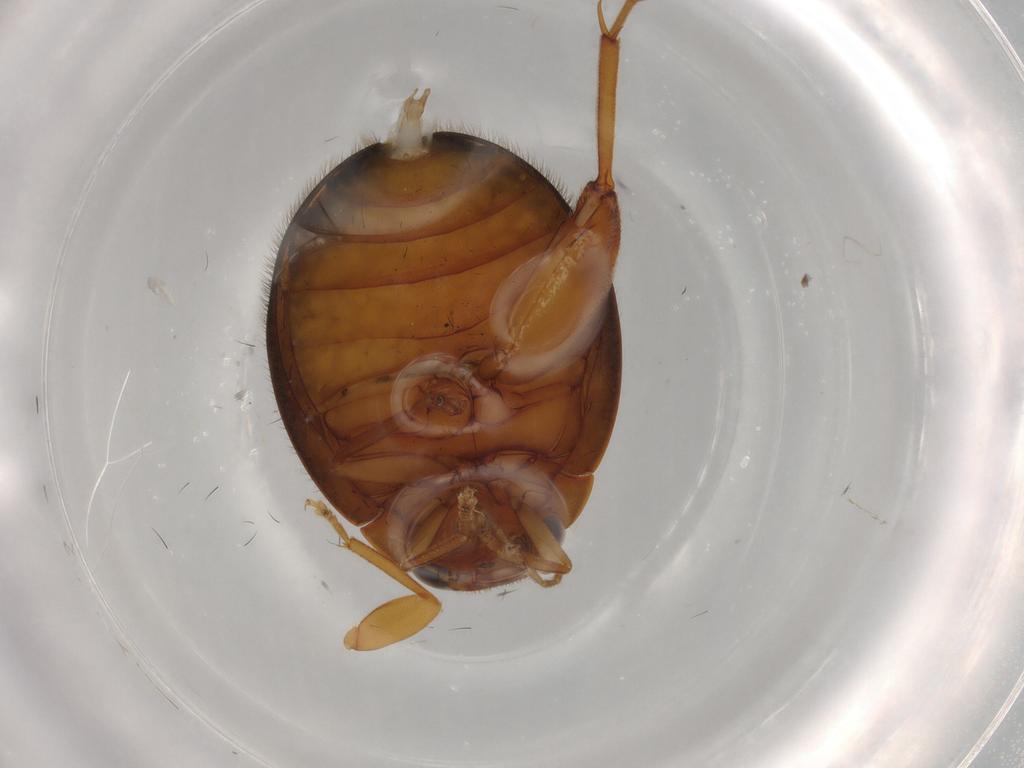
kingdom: Animalia
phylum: Arthropoda
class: Insecta
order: Coleoptera
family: Scirtidae
